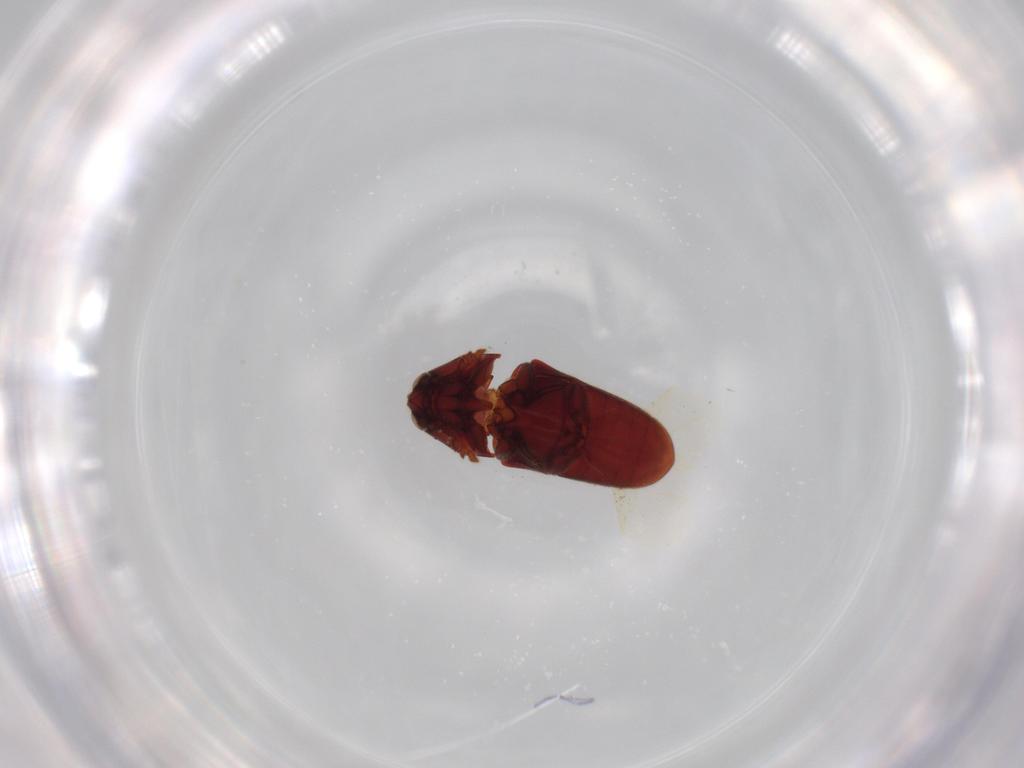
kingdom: Animalia
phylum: Arthropoda
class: Insecta
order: Coleoptera
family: Throscidae
